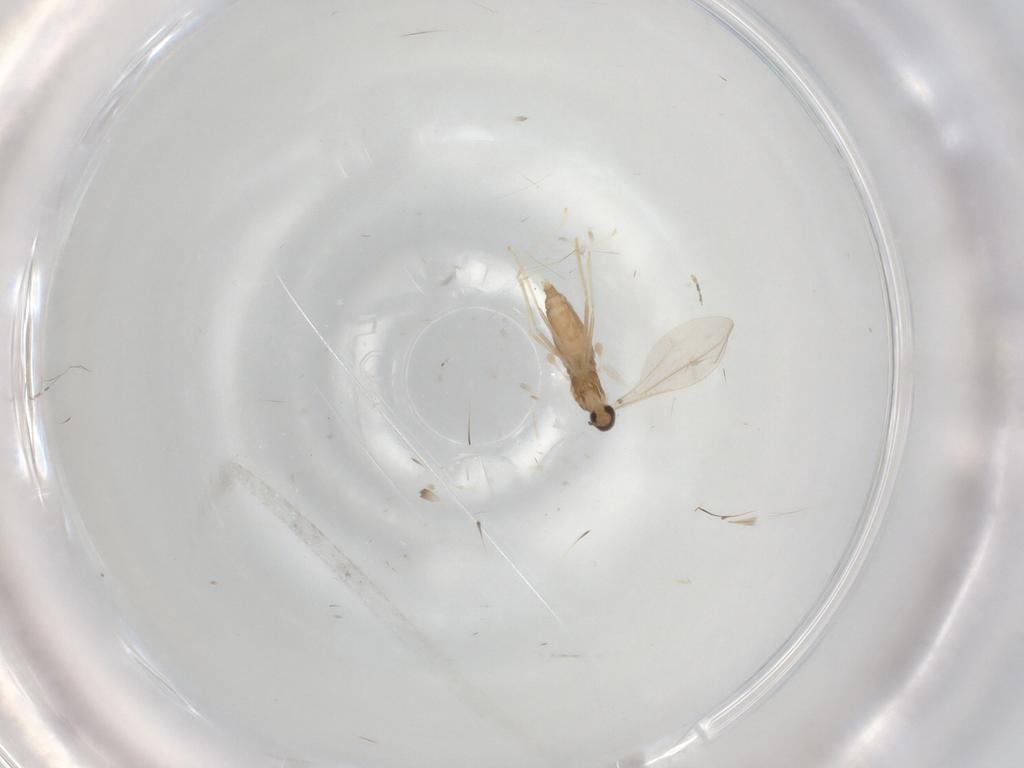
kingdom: Animalia
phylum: Arthropoda
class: Insecta
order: Diptera
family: Cecidomyiidae
